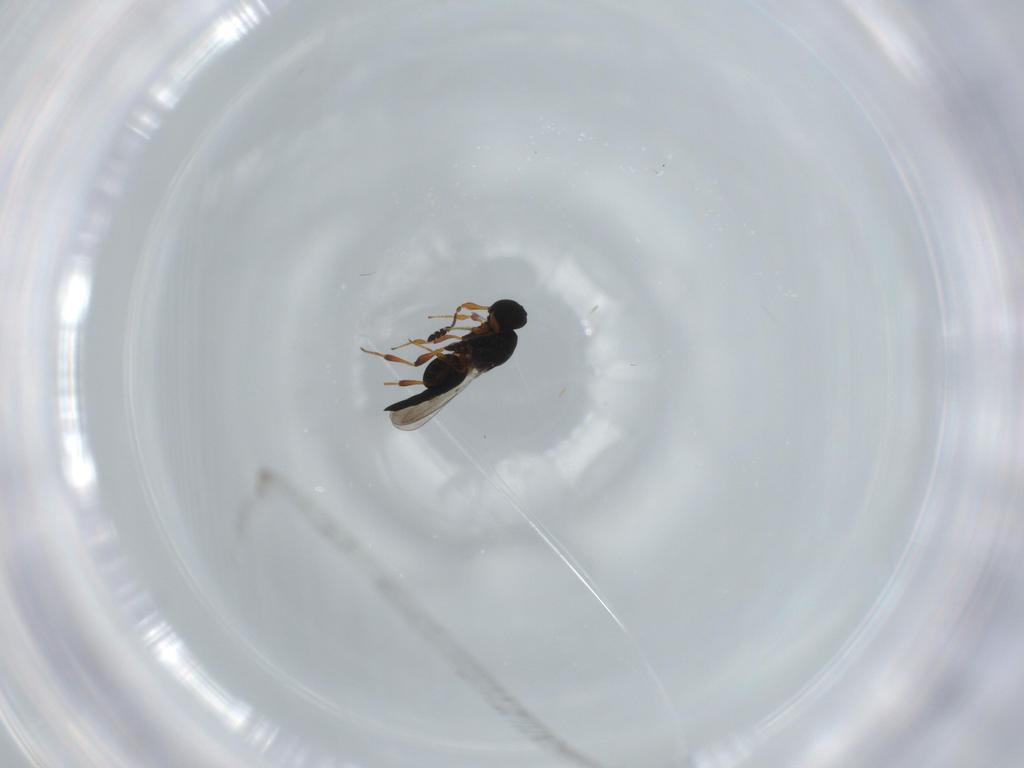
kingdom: Animalia
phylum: Arthropoda
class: Insecta
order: Hymenoptera
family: Platygastridae
